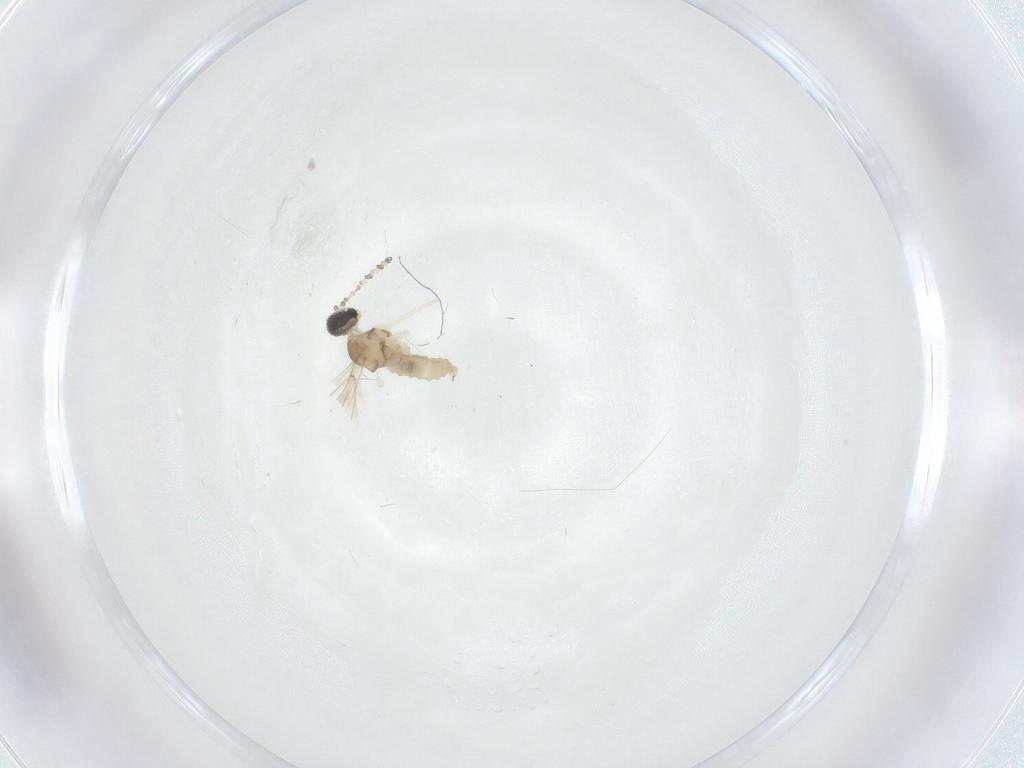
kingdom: Animalia
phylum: Arthropoda
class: Insecta
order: Diptera
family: Cecidomyiidae
